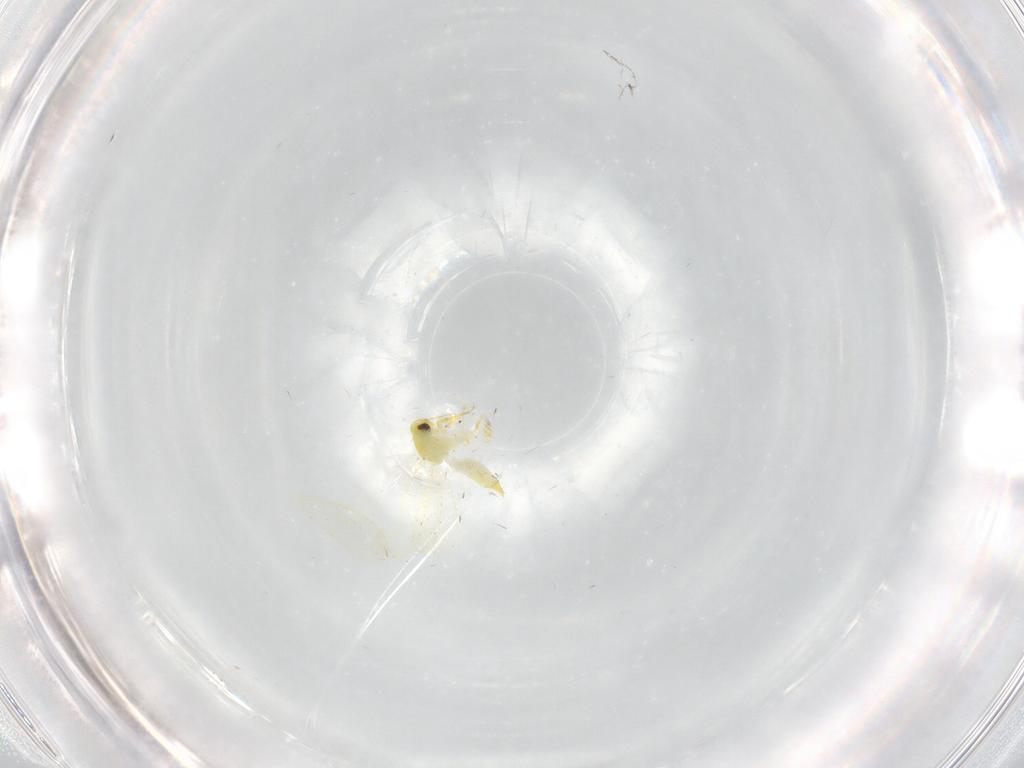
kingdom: Animalia
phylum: Arthropoda
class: Insecta
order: Hemiptera
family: Aleyrodidae
